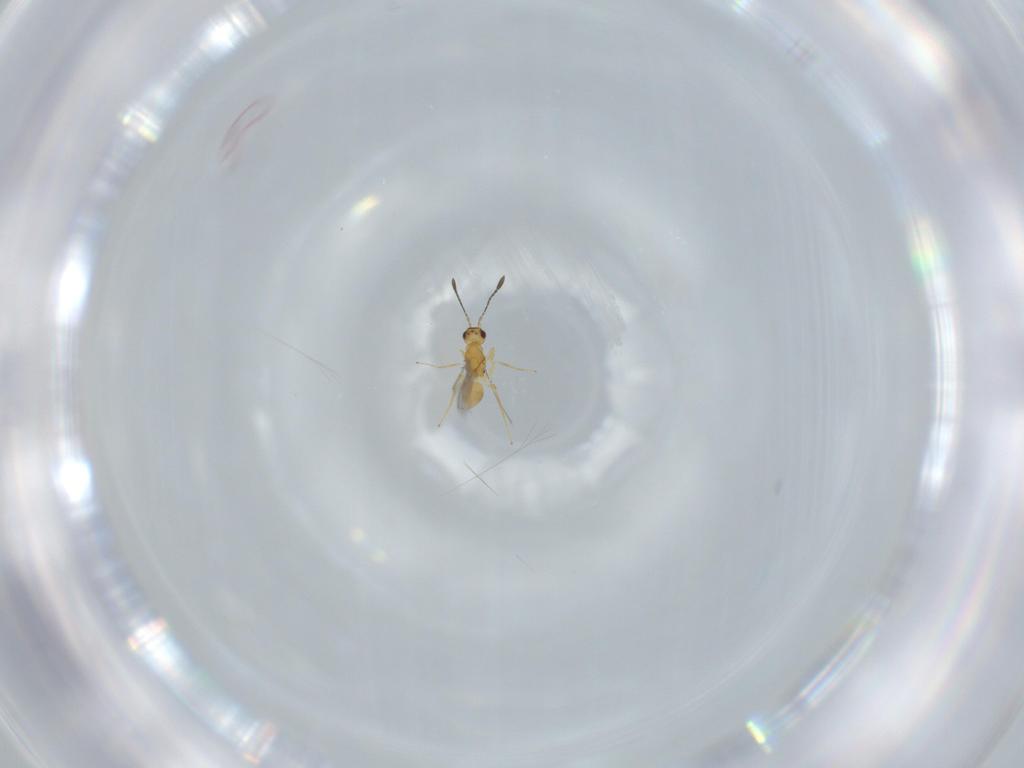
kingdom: Animalia
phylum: Arthropoda
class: Insecta
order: Hymenoptera
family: Mymaridae
